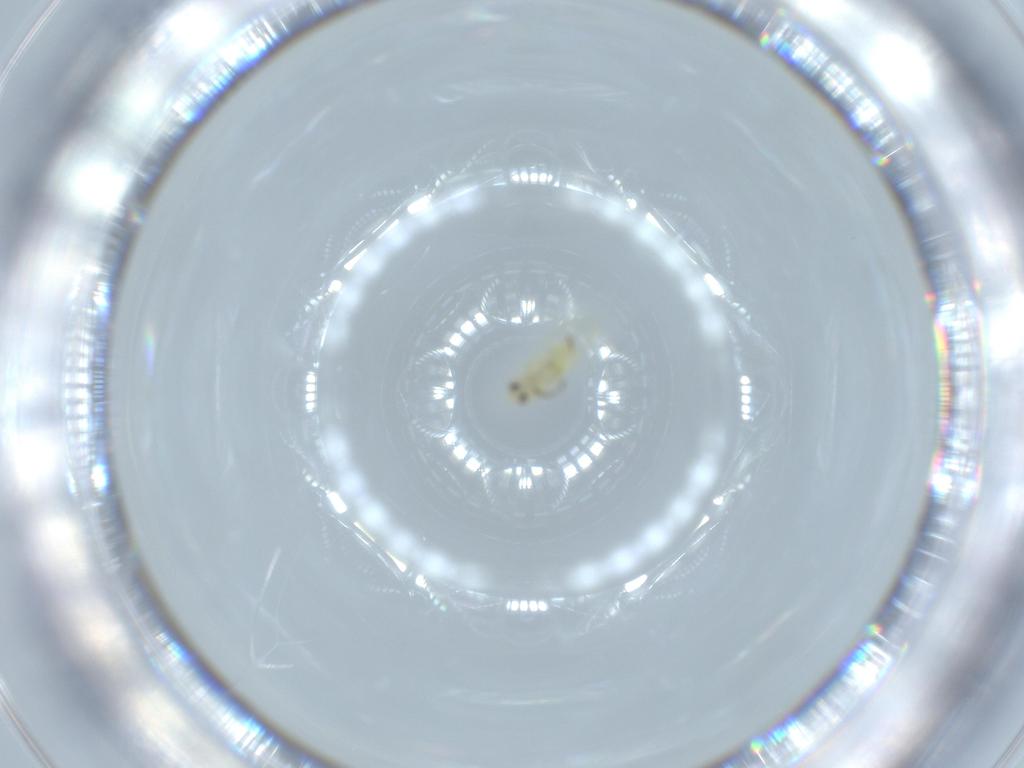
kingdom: Animalia
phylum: Arthropoda
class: Insecta
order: Hemiptera
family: Aleyrodidae
